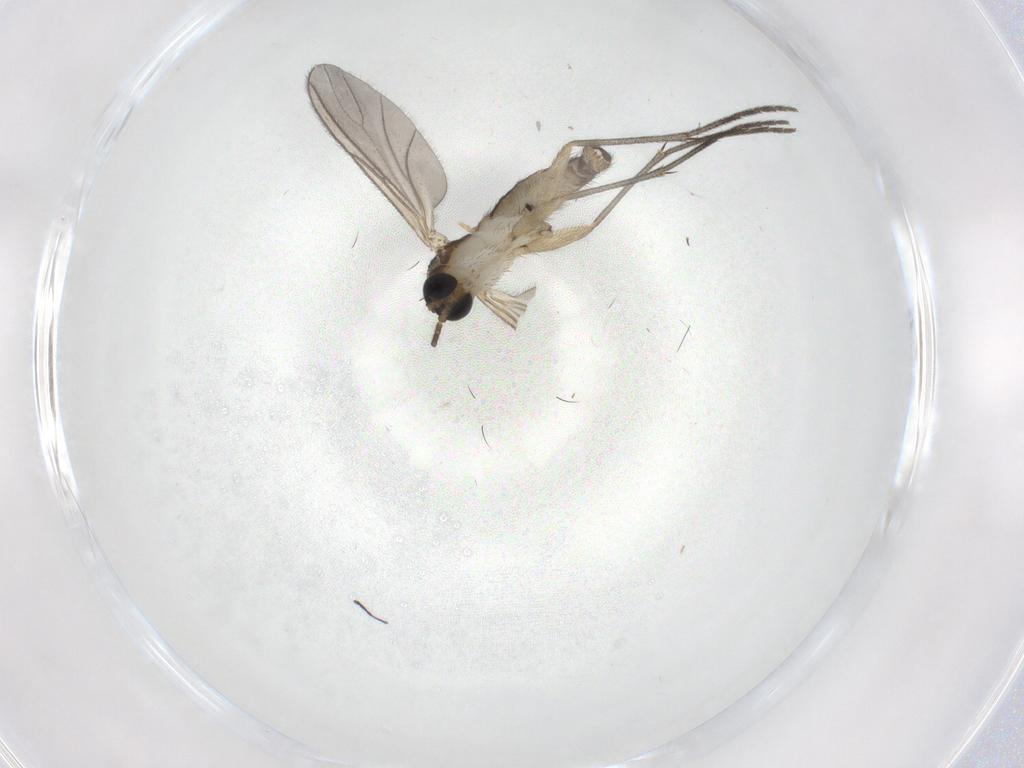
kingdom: Animalia
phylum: Arthropoda
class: Insecta
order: Diptera
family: Sciaridae
